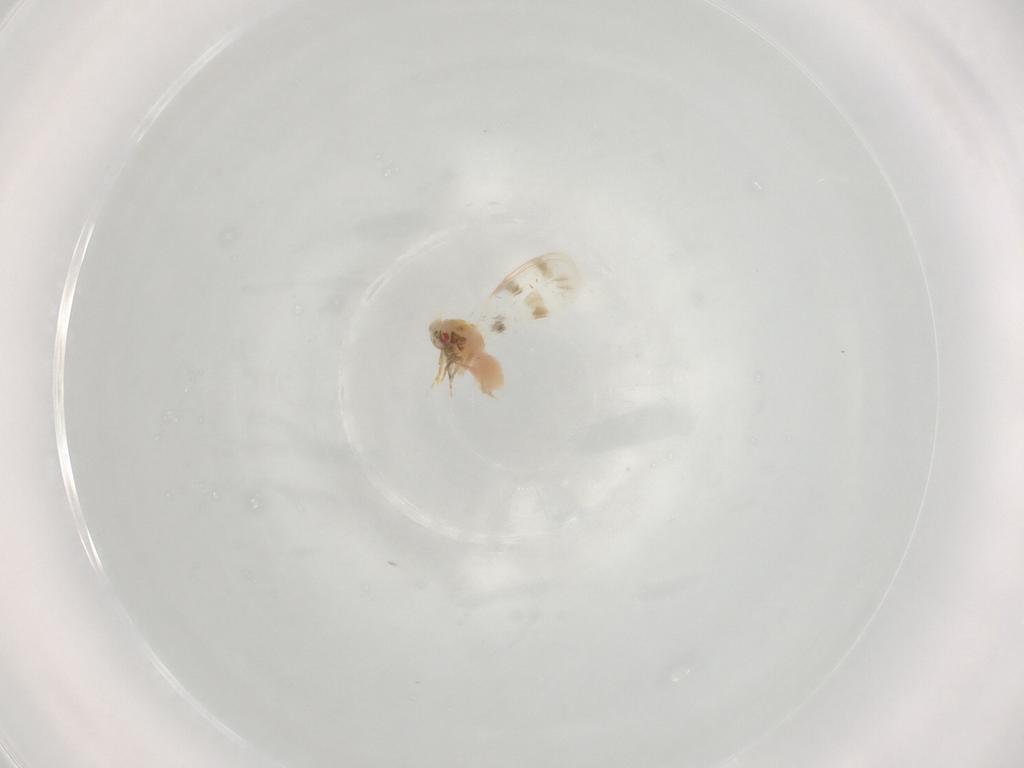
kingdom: Animalia
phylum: Arthropoda
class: Insecta
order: Hemiptera
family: Aleyrodidae
